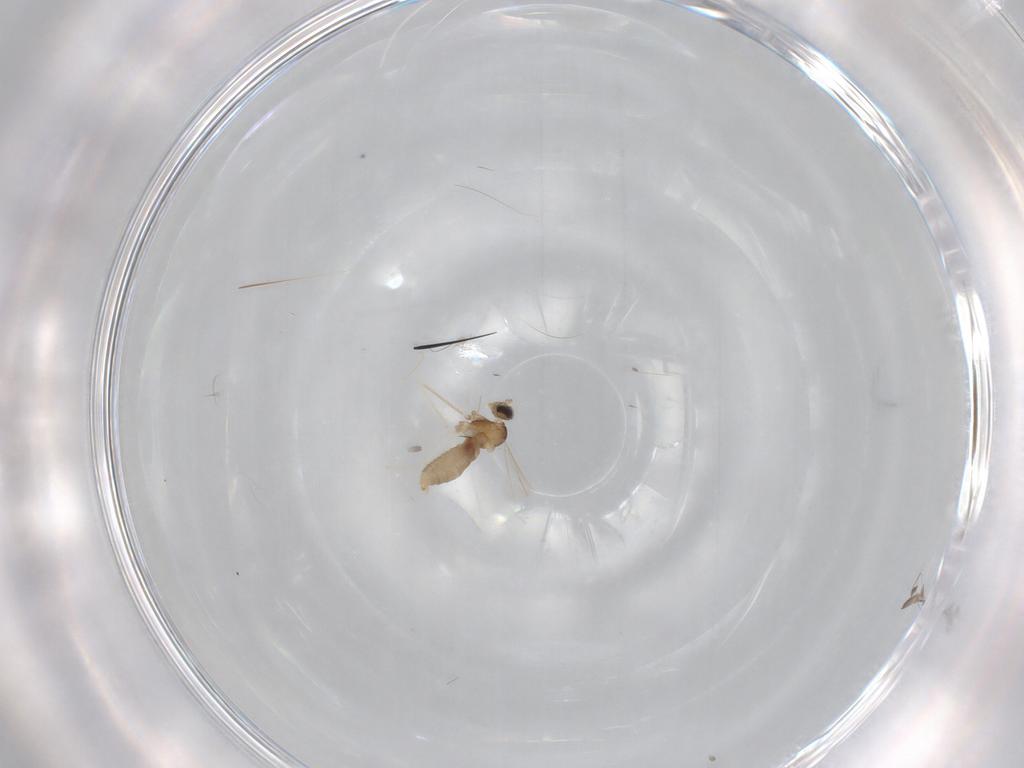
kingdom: Animalia
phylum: Arthropoda
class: Insecta
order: Diptera
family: Cecidomyiidae
